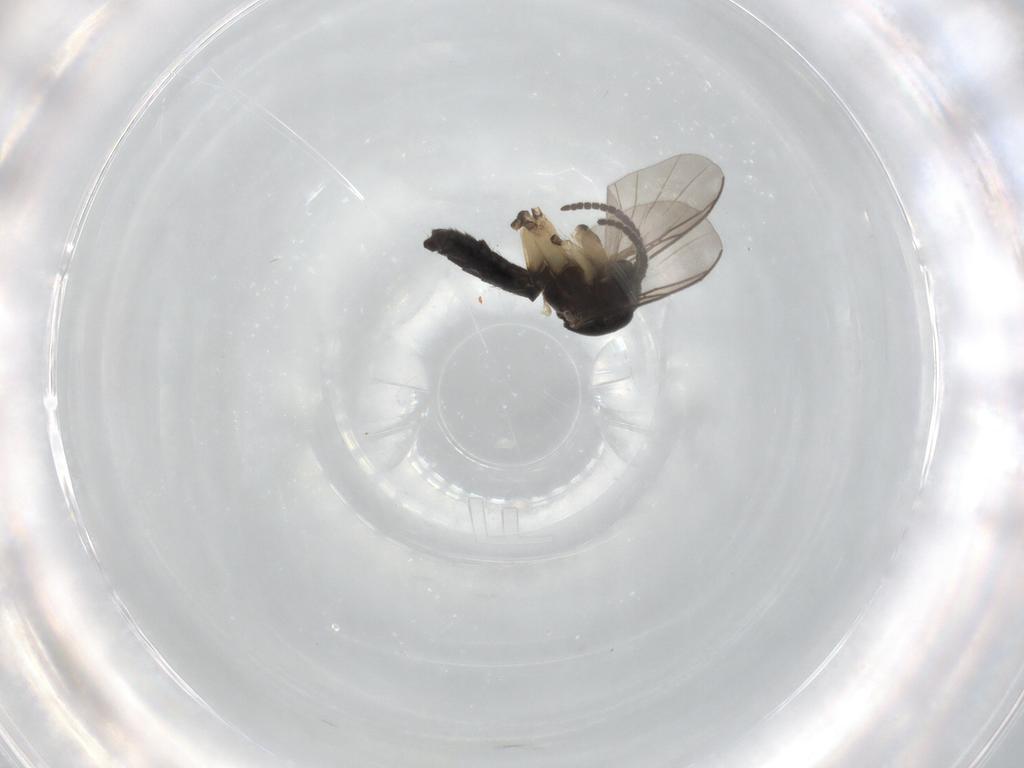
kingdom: Animalia
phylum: Arthropoda
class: Insecta
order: Diptera
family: Mycetophilidae
